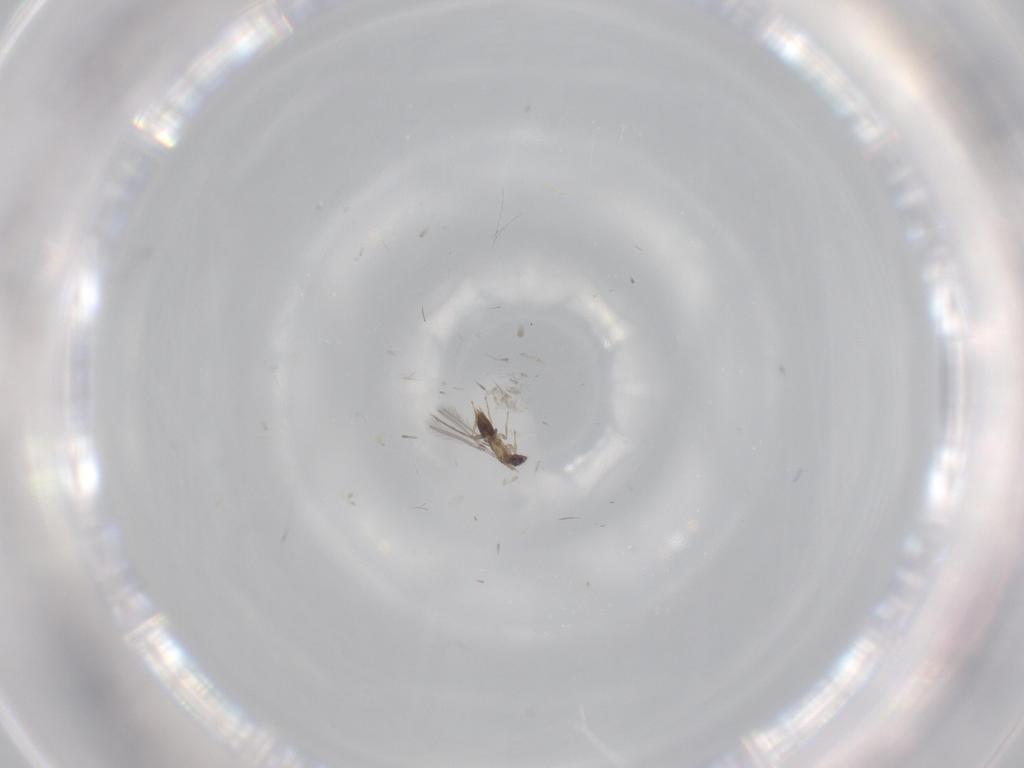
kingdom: Animalia
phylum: Arthropoda
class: Insecta
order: Hymenoptera
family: Mymaridae
